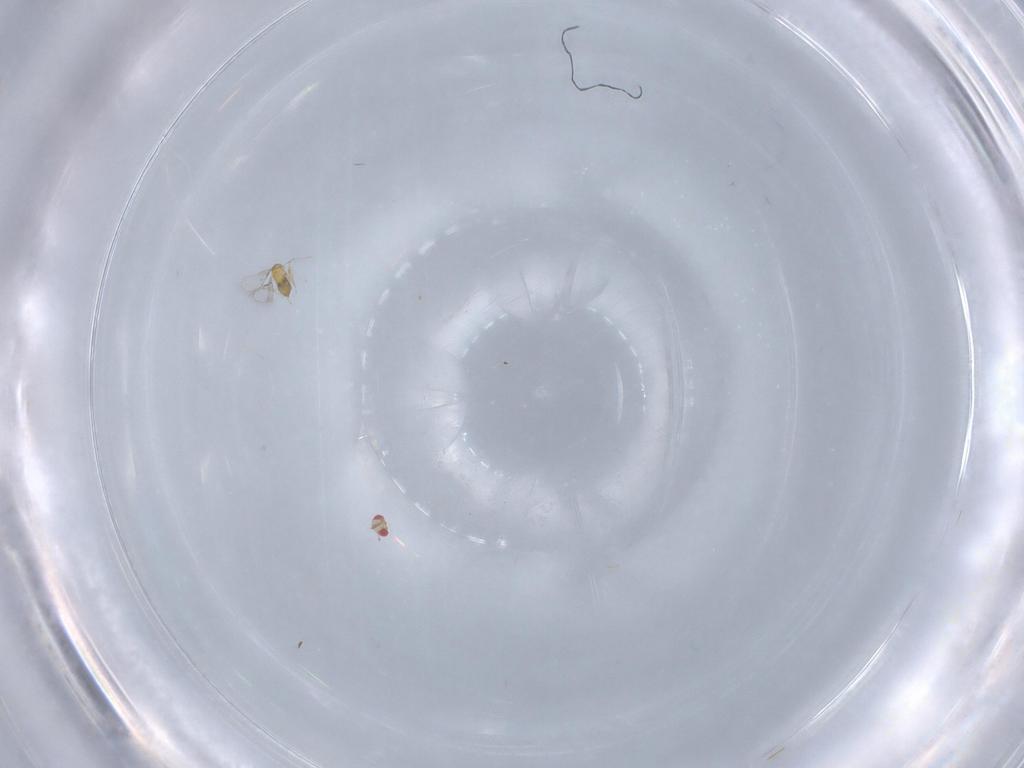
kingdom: Animalia
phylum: Arthropoda
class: Insecta
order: Hymenoptera
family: Trichogrammatidae
